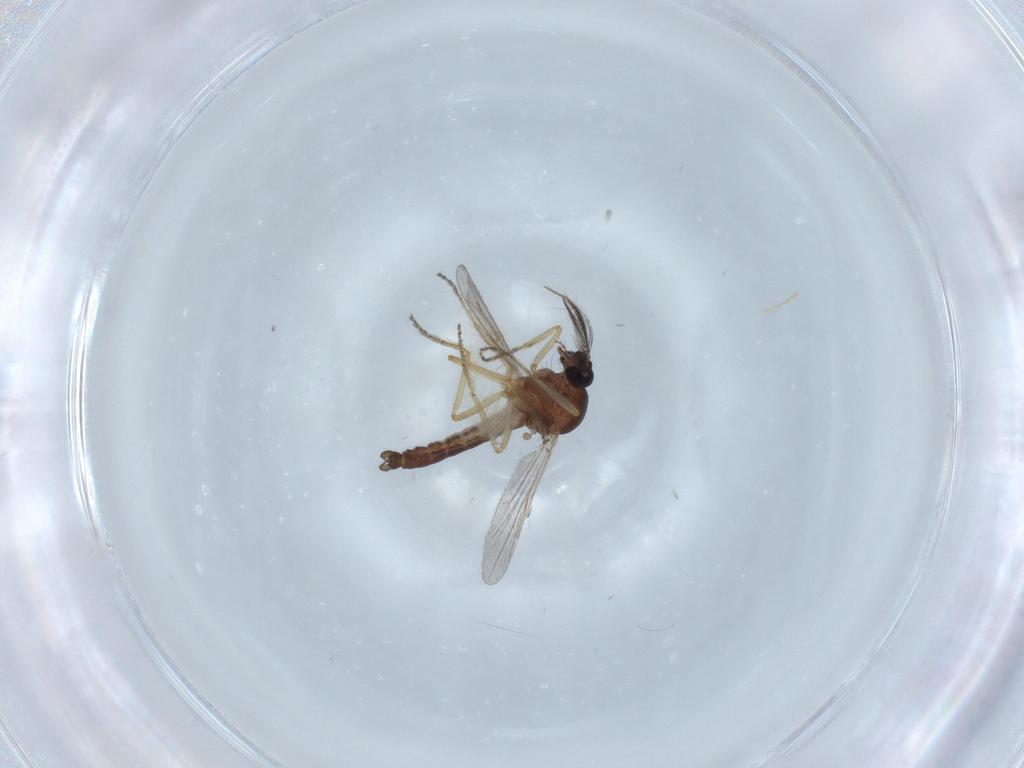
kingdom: Animalia
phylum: Arthropoda
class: Insecta
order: Diptera
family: Ceratopogonidae
